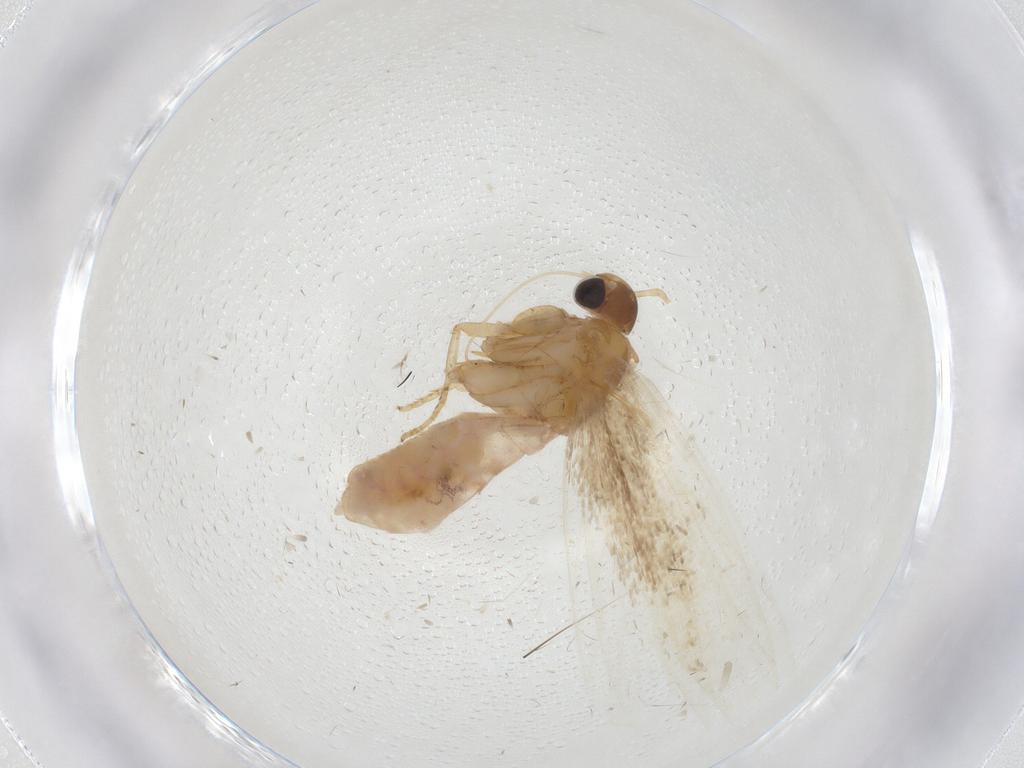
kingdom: Animalia
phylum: Arthropoda
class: Insecta
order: Lepidoptera
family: Gelechiidae
